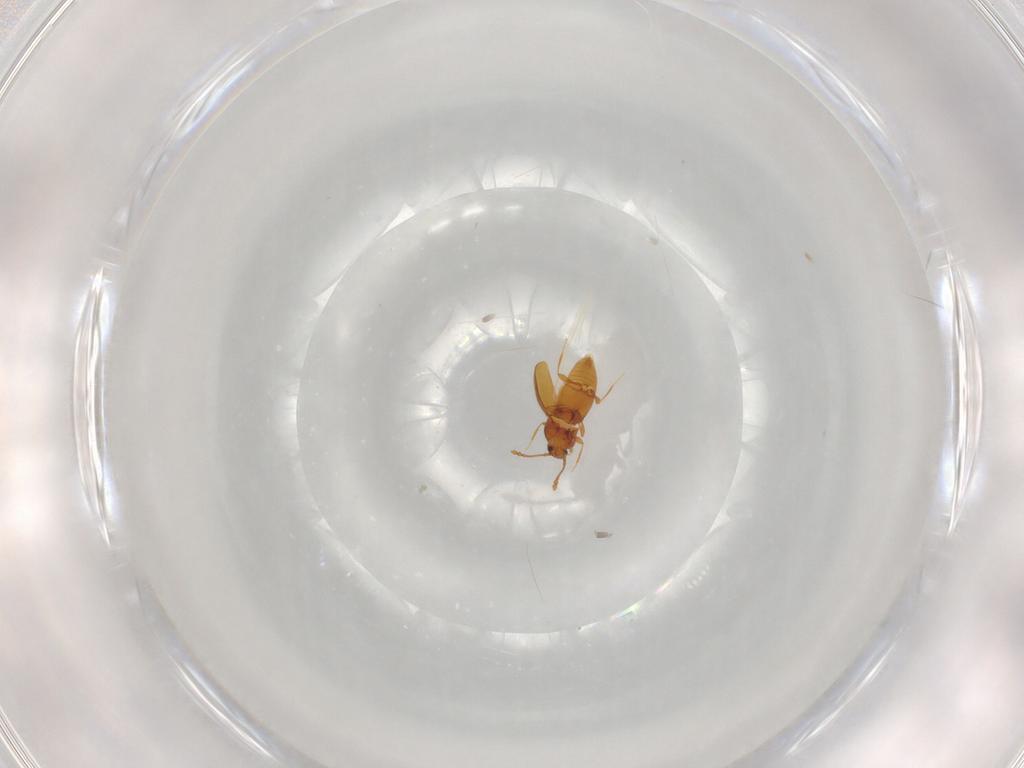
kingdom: Animalia
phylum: Arthropoda
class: Insecta
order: Coleoptera
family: Staphylinidae
